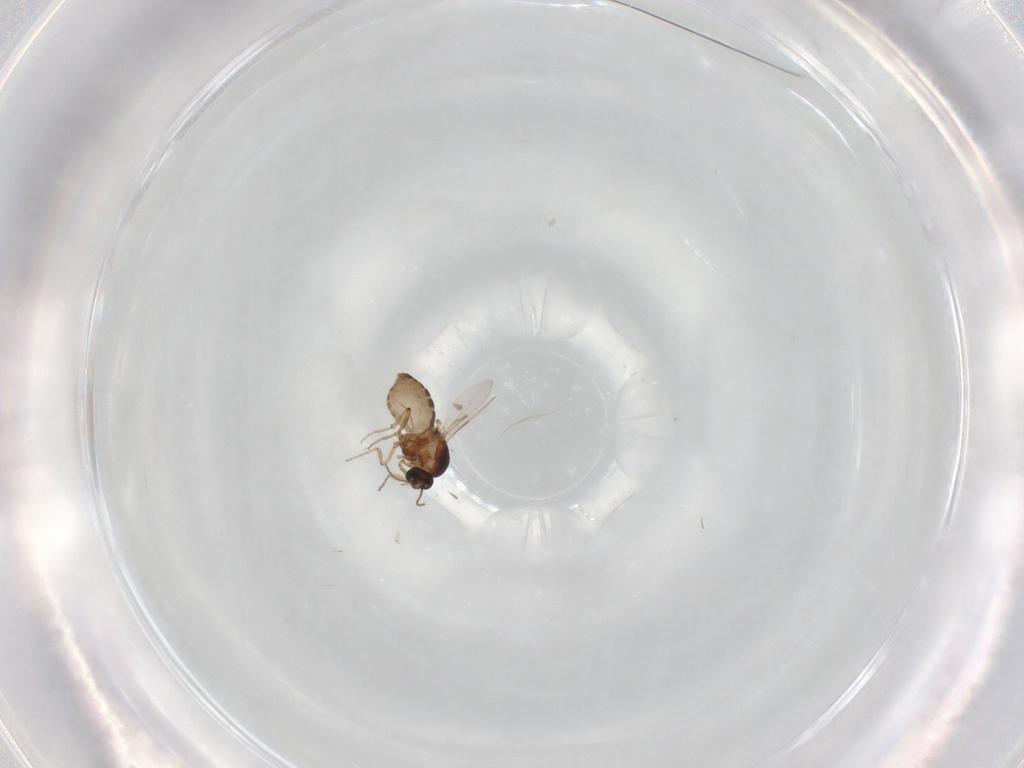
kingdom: Animalia
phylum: Arthropoda
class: Insecta
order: Diptera
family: Ceratopogonidae
